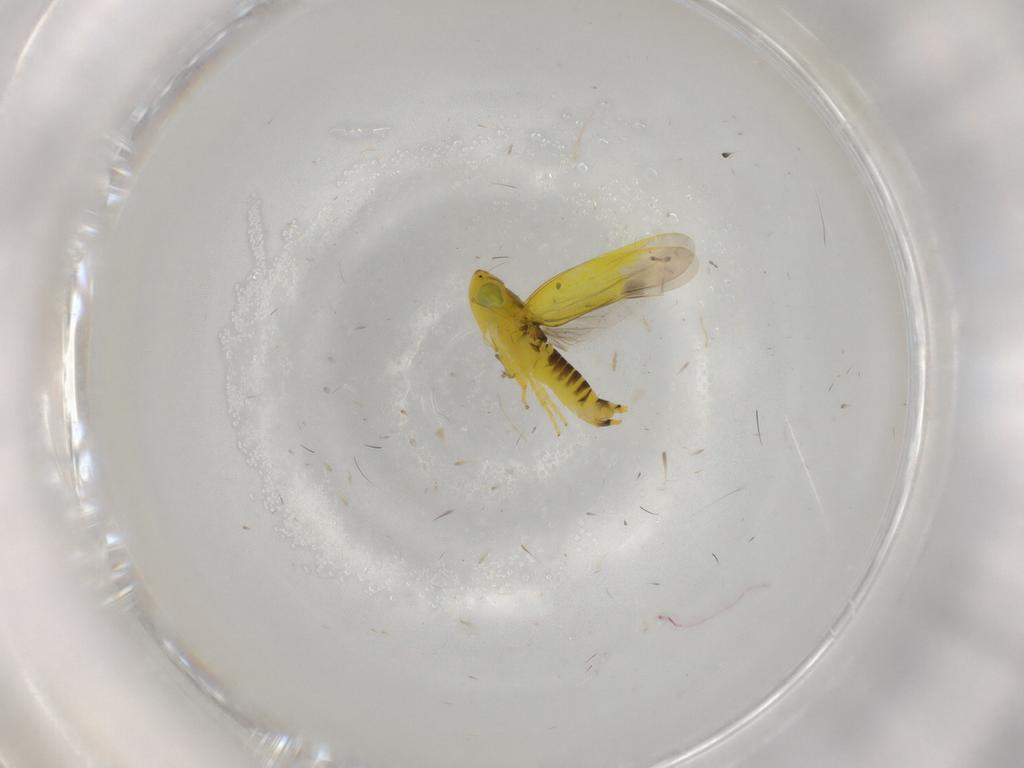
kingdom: Animalia
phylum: Arthropoda
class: Insecta
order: Hemiptera
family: Cicadellidae
